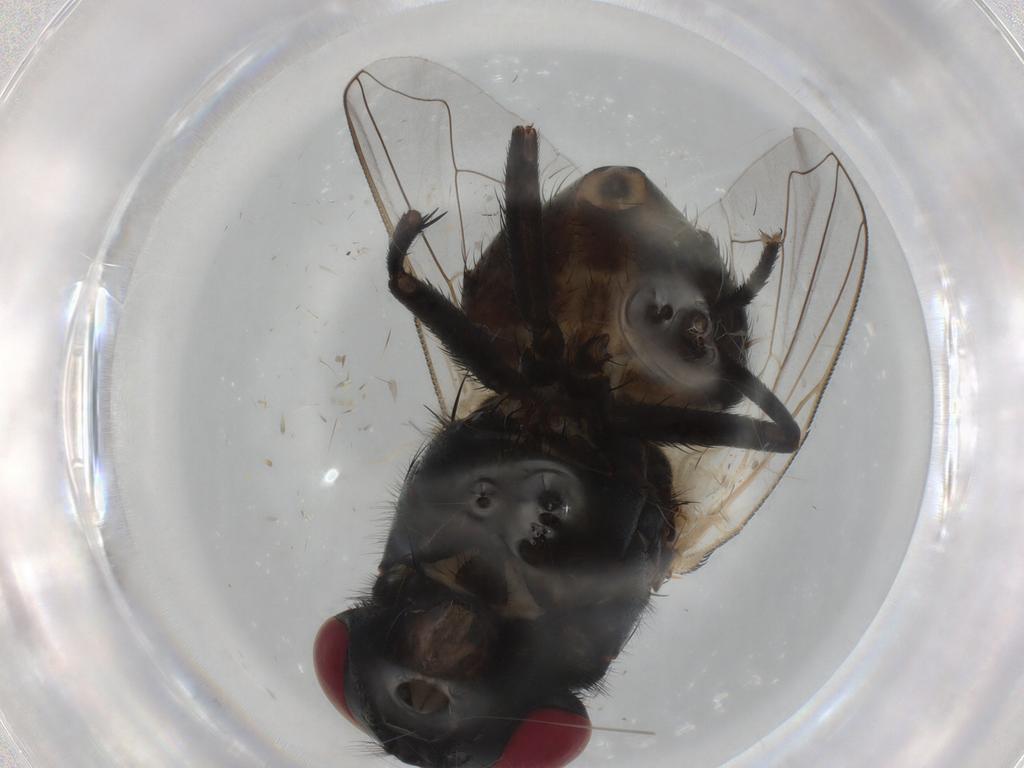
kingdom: Animalia
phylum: Arthropoda
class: Insecta
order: Diptera
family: Muscidae
